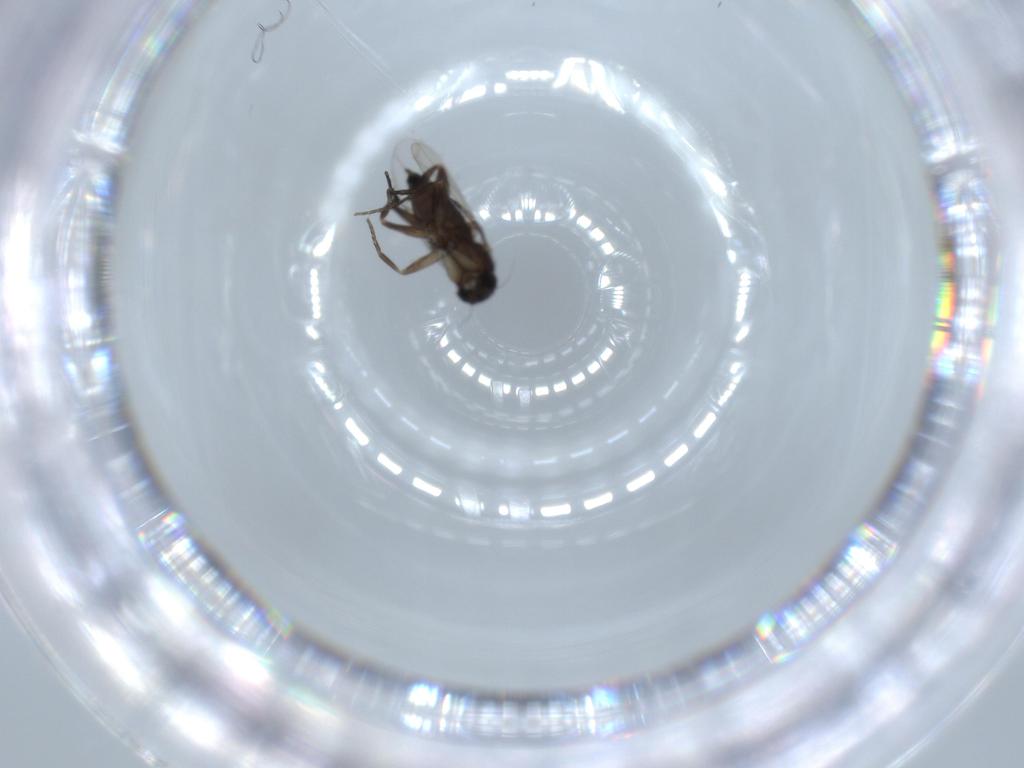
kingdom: Animalia
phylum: Arthropoda
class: Insecta
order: Diptera
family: Phoridae
